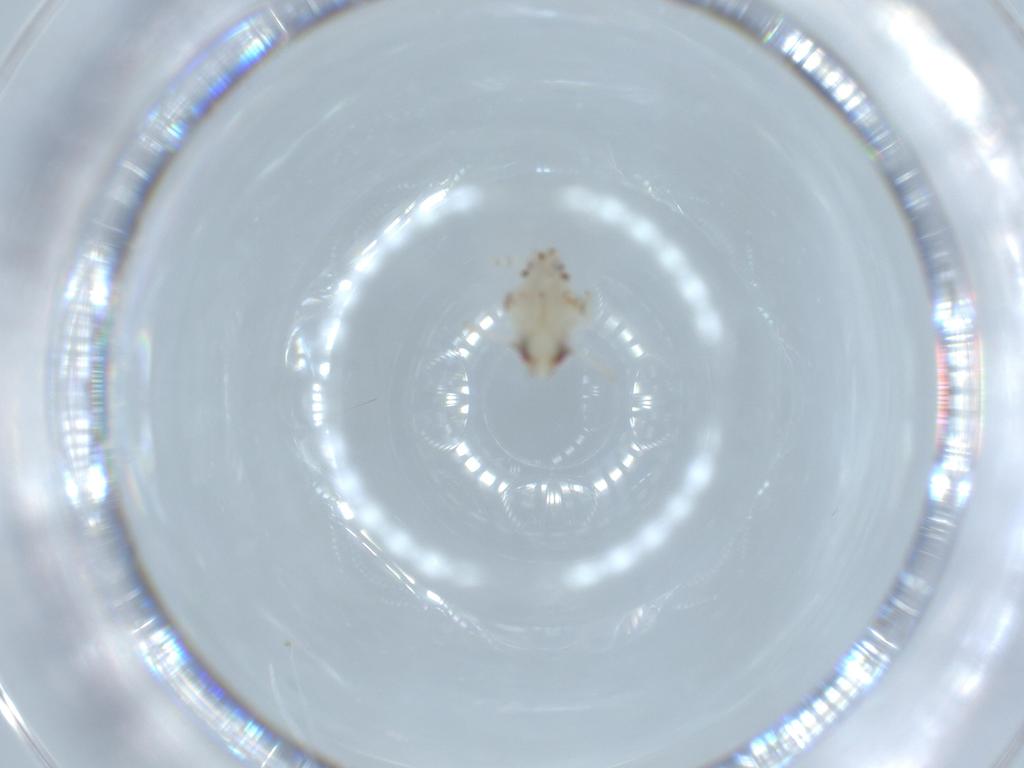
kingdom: Animalia
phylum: Arthropoda
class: Insecta
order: Hemiptera
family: Nogodinidae
